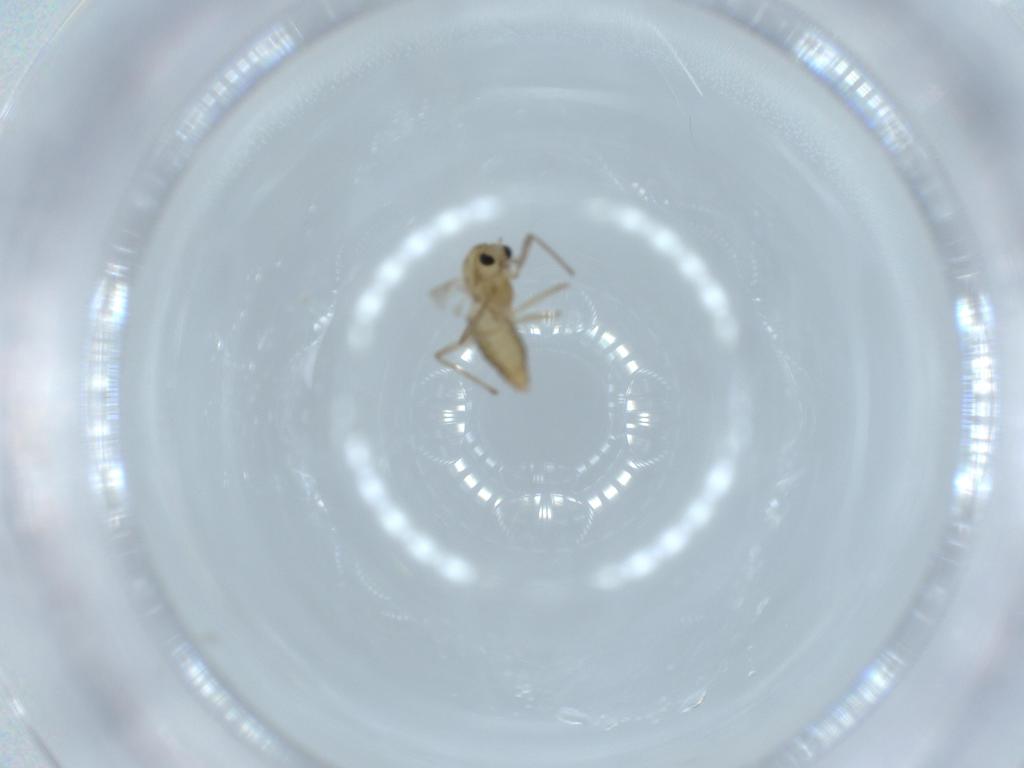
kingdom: Animalia
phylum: Arthropoda
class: Insecta
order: Diptera
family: Chironomidae
